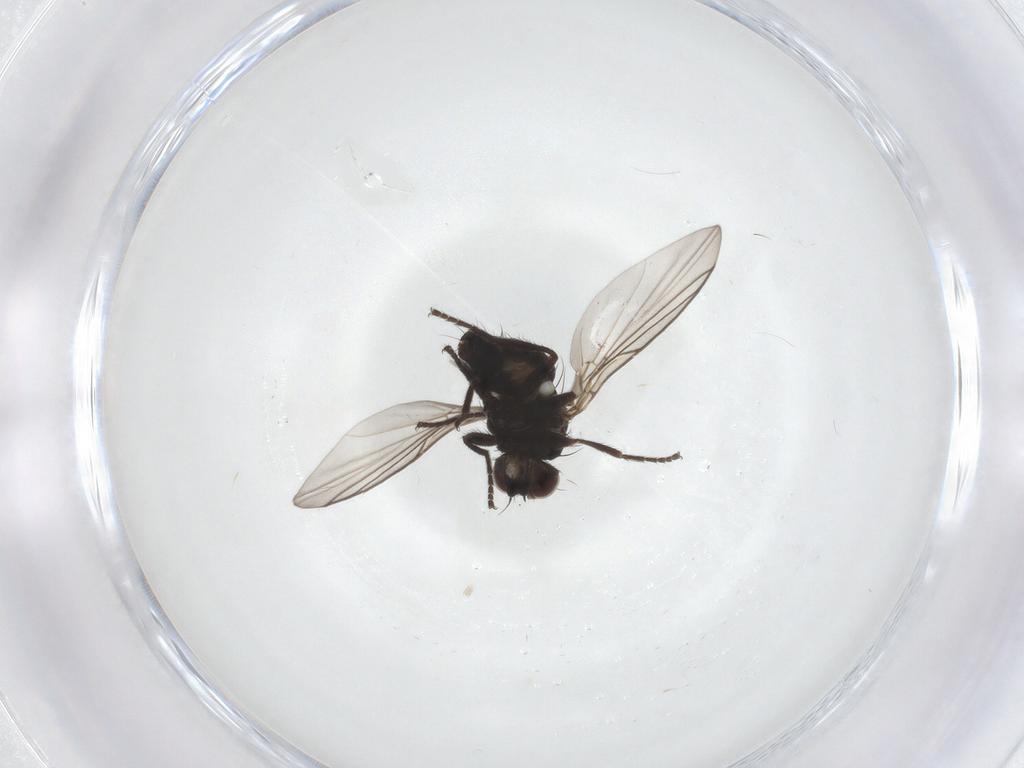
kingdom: Animalia
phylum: Arthropoda
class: Insecta
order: Diptera
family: Agromyzidae
